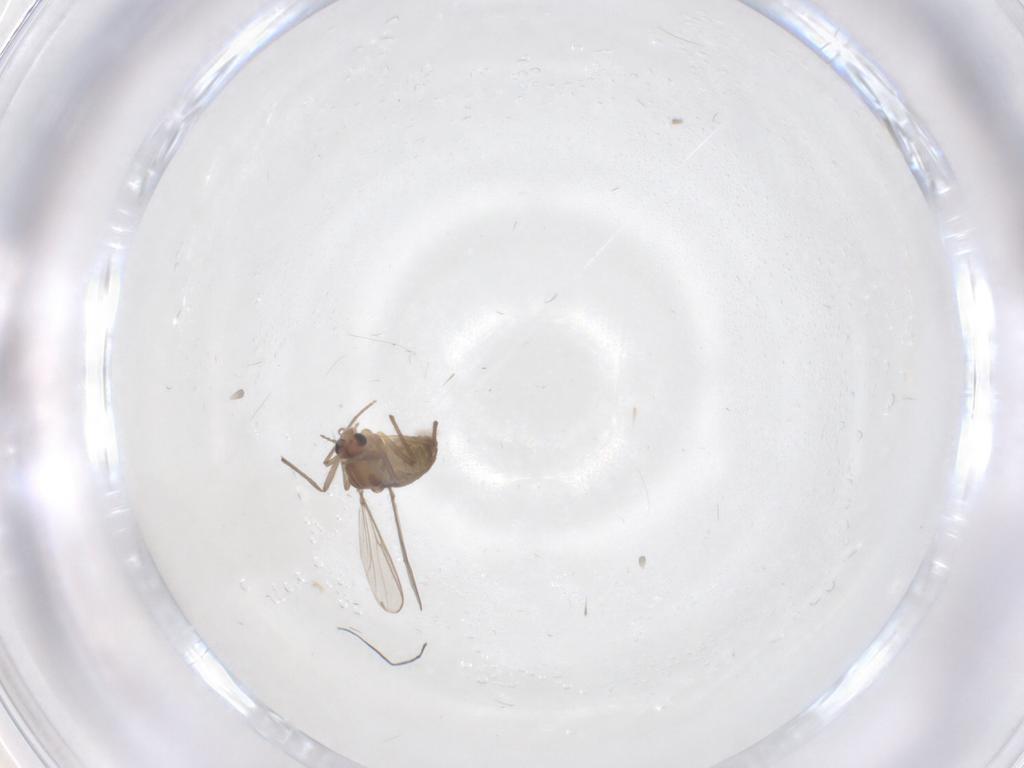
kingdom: Animalia
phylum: Arthropoda
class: Insecta
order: Diptera
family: Chironomidae
